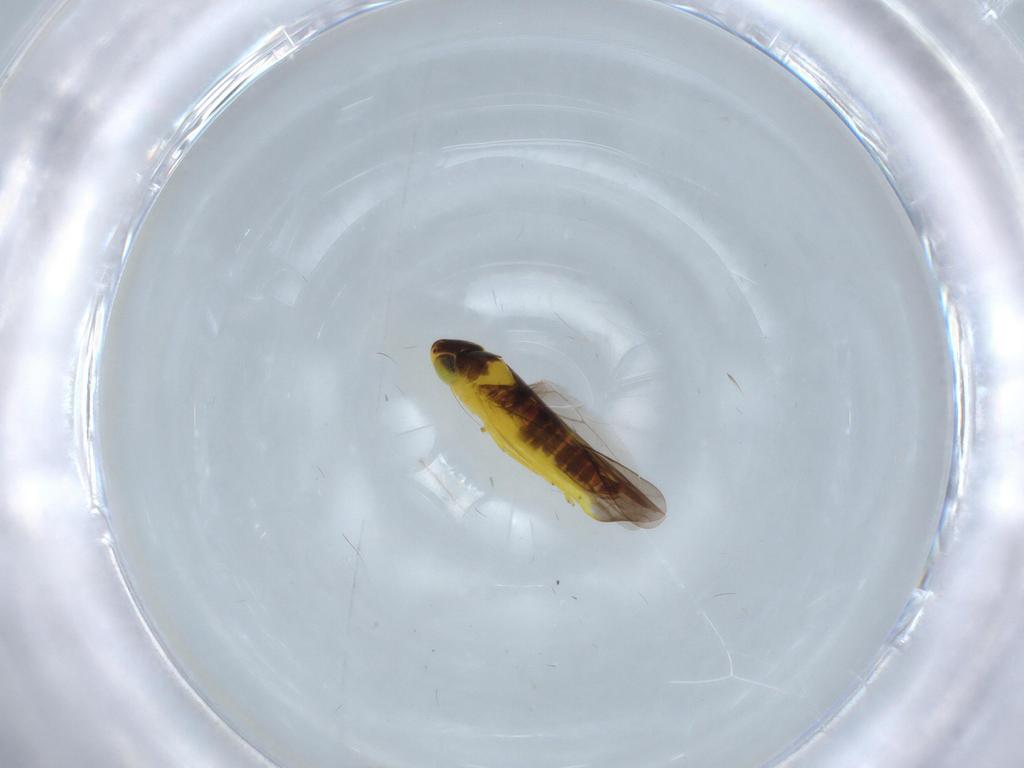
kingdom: Animalia
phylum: Arthropoda
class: Insecta
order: Hemiptera
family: Cicadellidae
